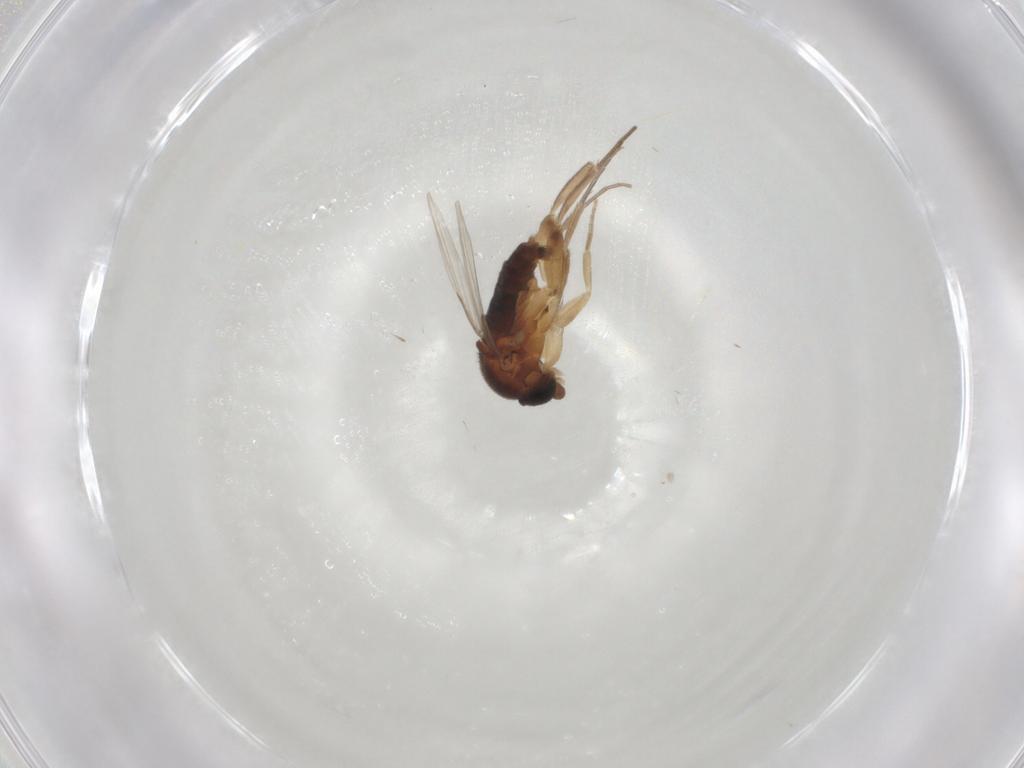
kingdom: Animalia
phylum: Arthropoda
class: Insecta
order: Diptera
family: Phoridae
